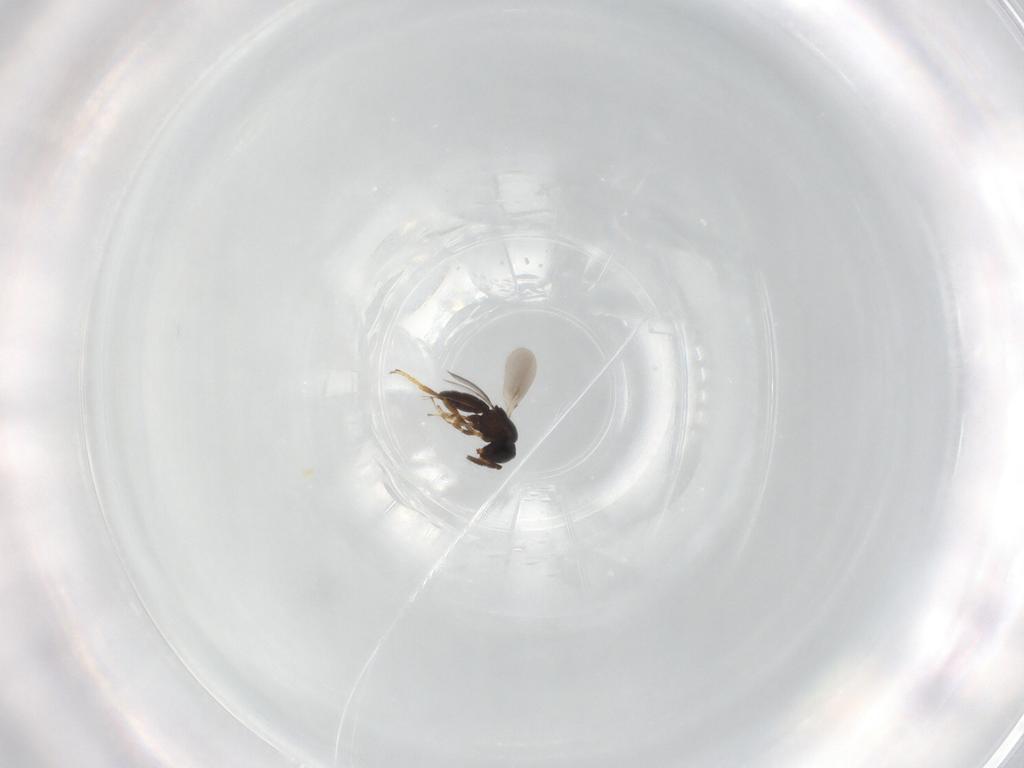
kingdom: Animalia
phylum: Arthropoda
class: Insecta
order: Hymenoptera
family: Scelionidae
